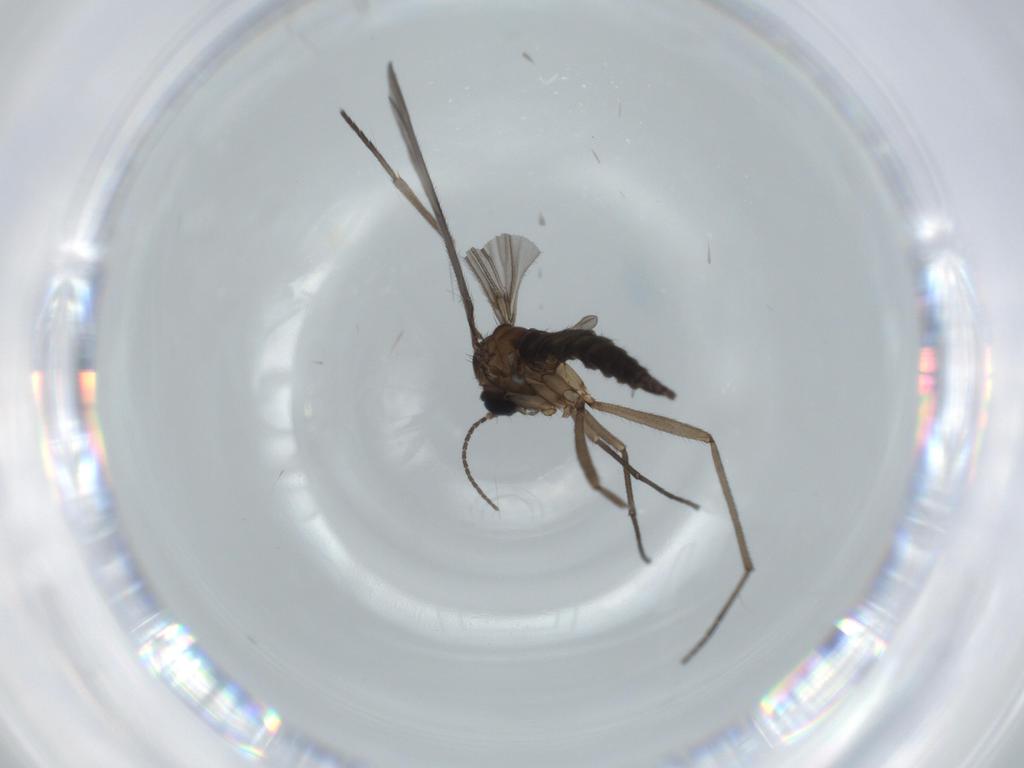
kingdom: Animalia
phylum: Arthropoda
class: Insecta
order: Diptera
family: Sciaridae
